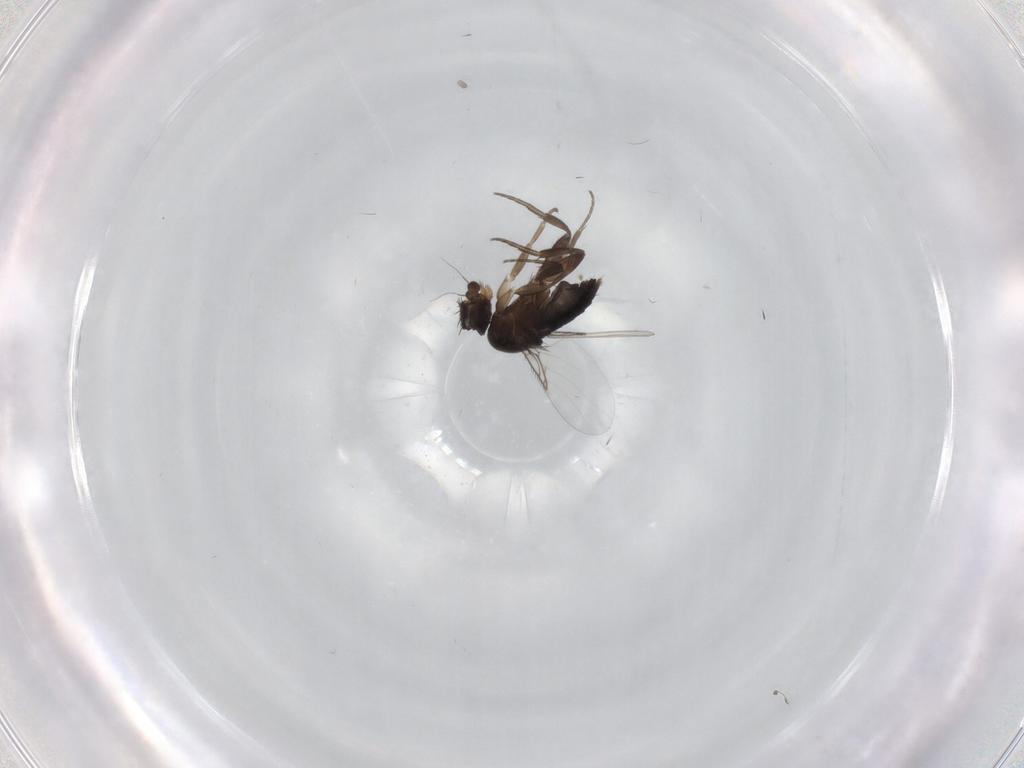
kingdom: Animalia
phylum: Arthropoda
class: Insecta
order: Diptera
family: Phoridae
